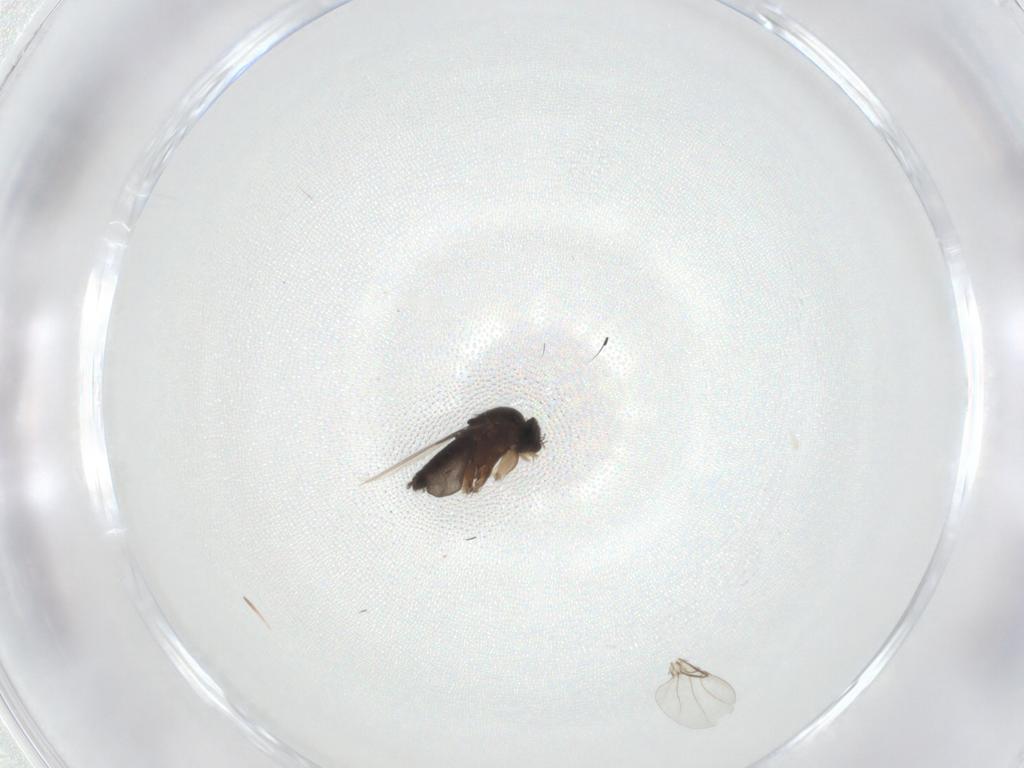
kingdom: Animalia
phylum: Arthropoda
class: Insecta
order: Diptera
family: Phoridae
